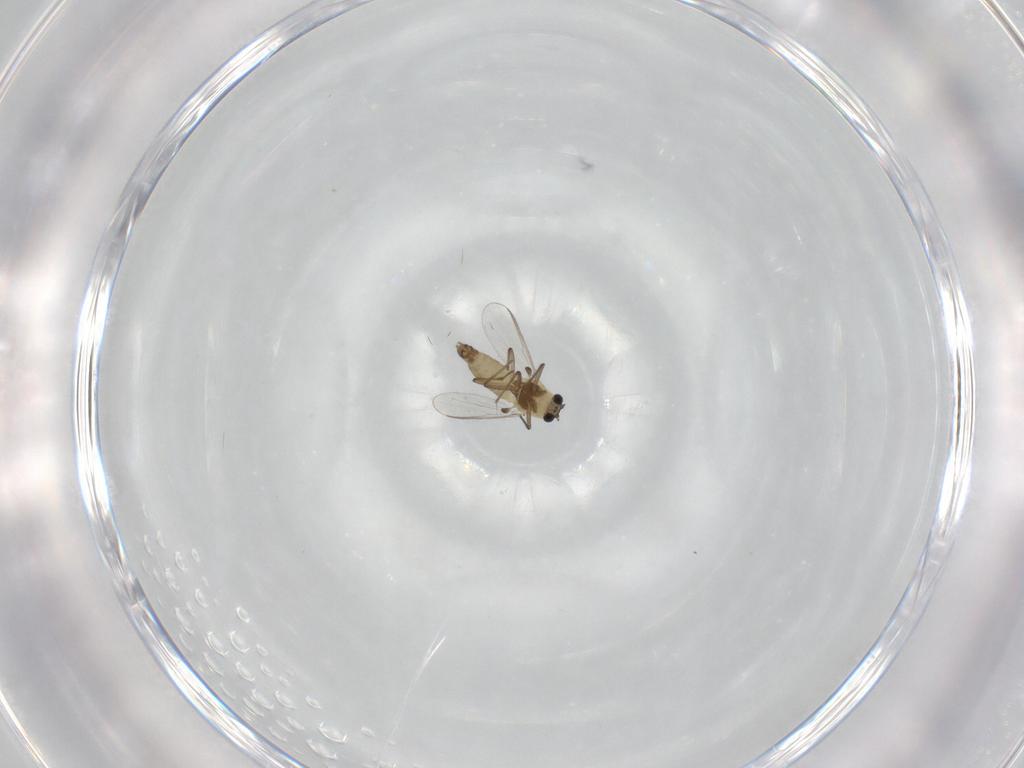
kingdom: Animalia
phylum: Arthropoda
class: Insecta
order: Diptera
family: Chironomidae
